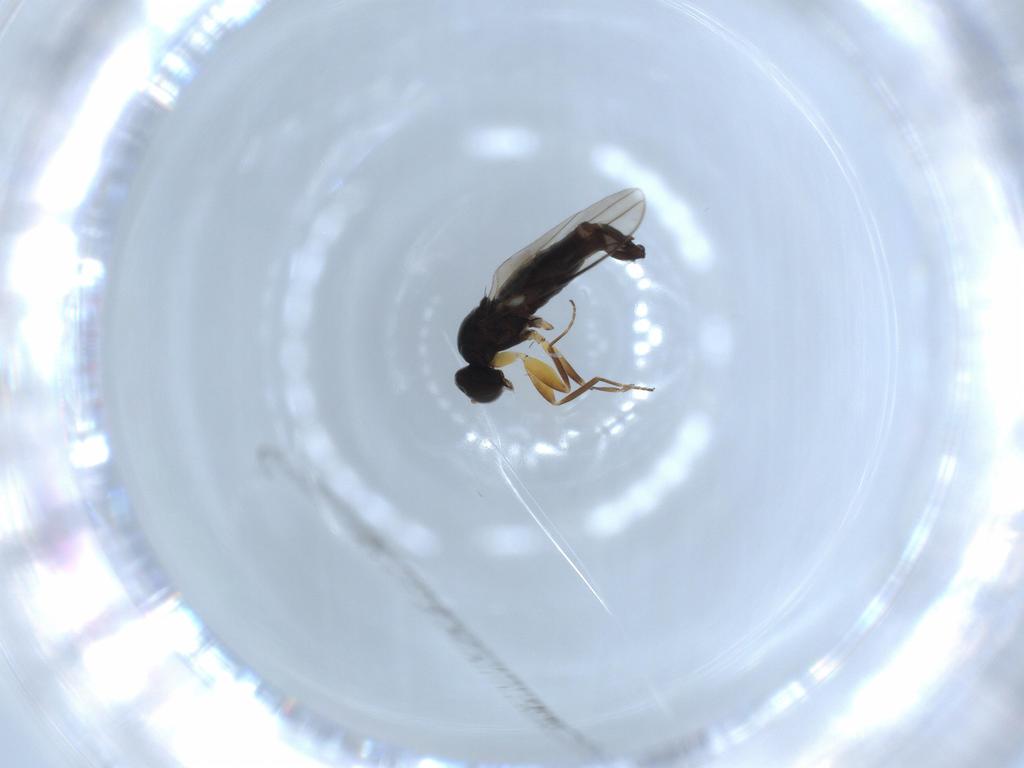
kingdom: Animalia
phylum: Arthropoda
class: Insecta
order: Diptera
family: Hybotidae
